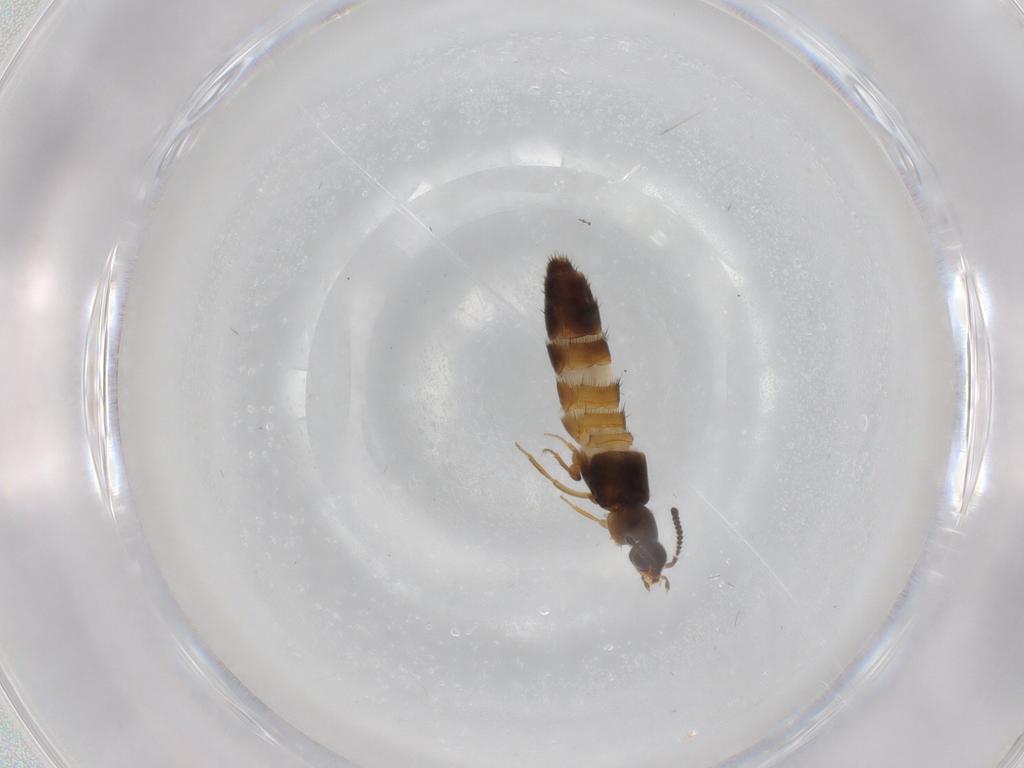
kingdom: Animalia
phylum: Arthropoda
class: Insecta
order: Coleoptera
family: Staphylinidae
